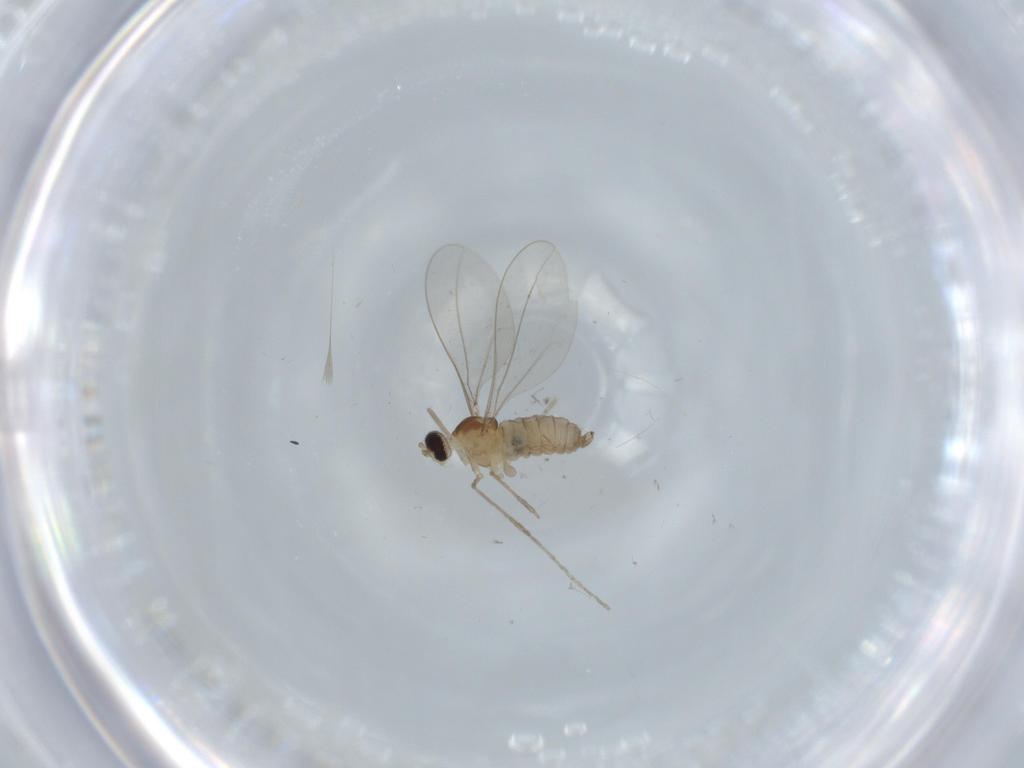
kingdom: Animalia
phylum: Arthropoda
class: Insecta
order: Diptera
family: Cecidomyiidae
